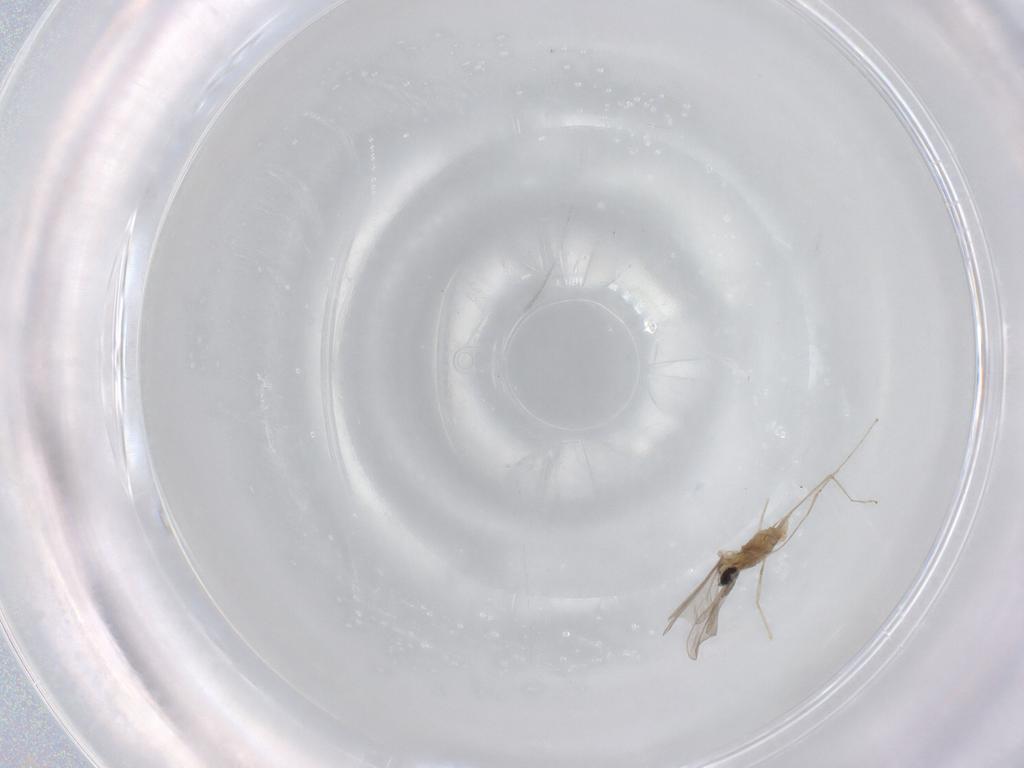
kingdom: Animalia
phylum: Arthropoda
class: Insecta
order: Diptera
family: Cecidomyiidae
